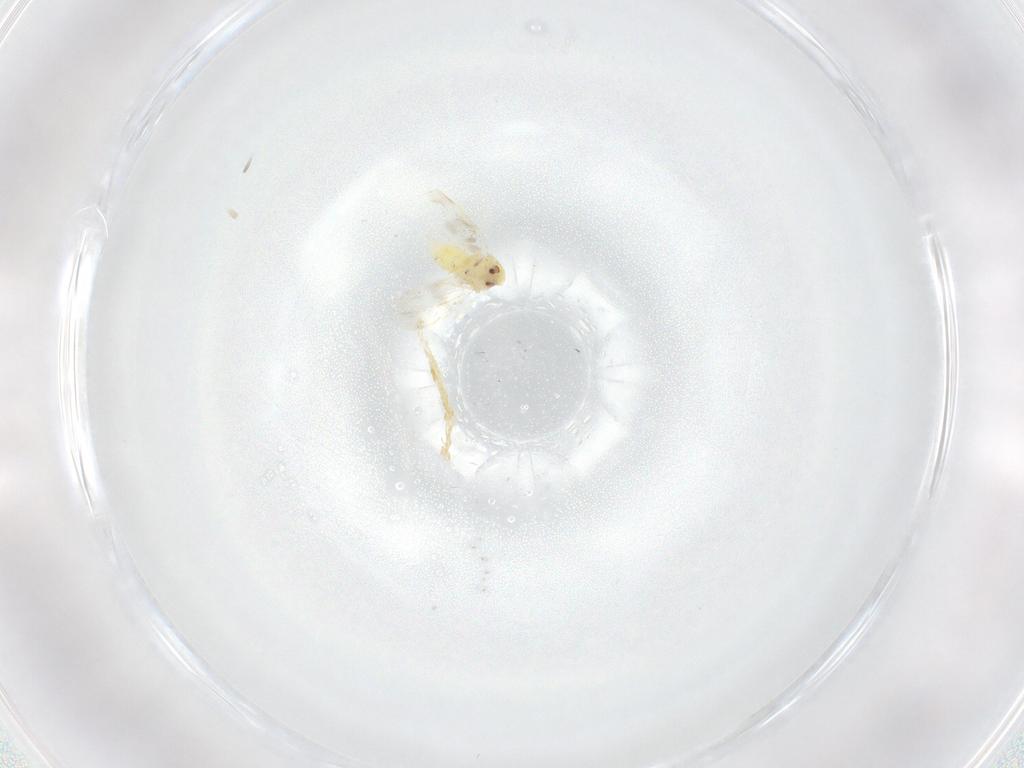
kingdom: Animalia
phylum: Arthropoda
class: Insecta
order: Hemiptera
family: Aleyrodidae
